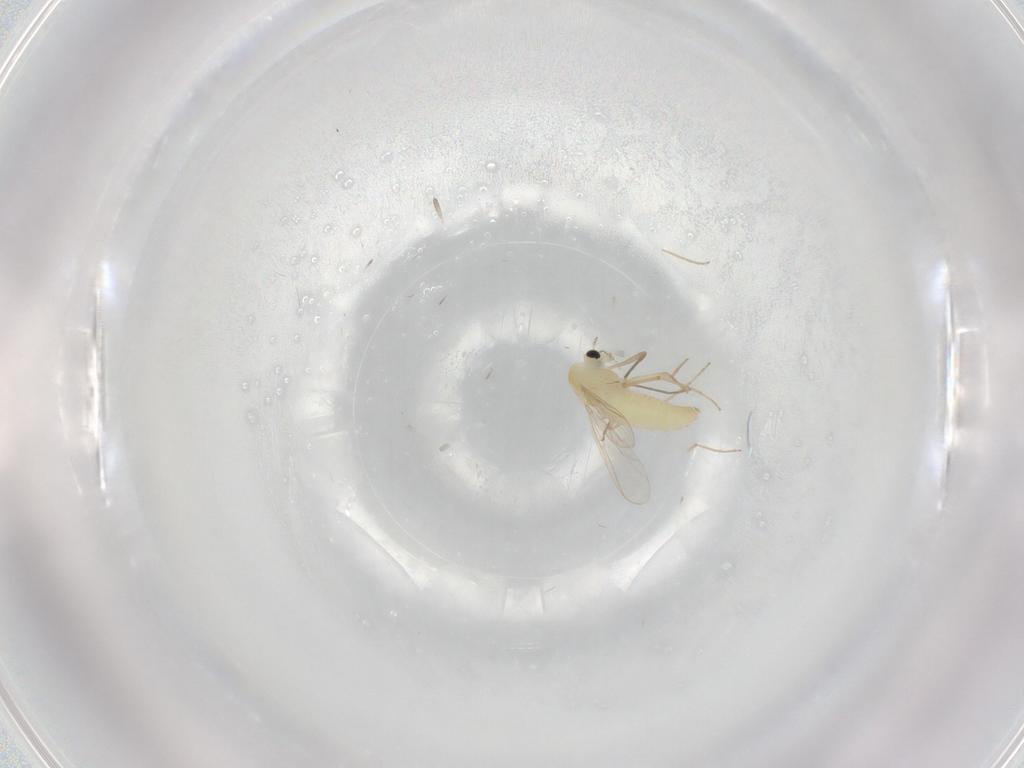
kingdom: Animalia
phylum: Arthropoda
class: Insecta
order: Diptera
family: Chironomidae
